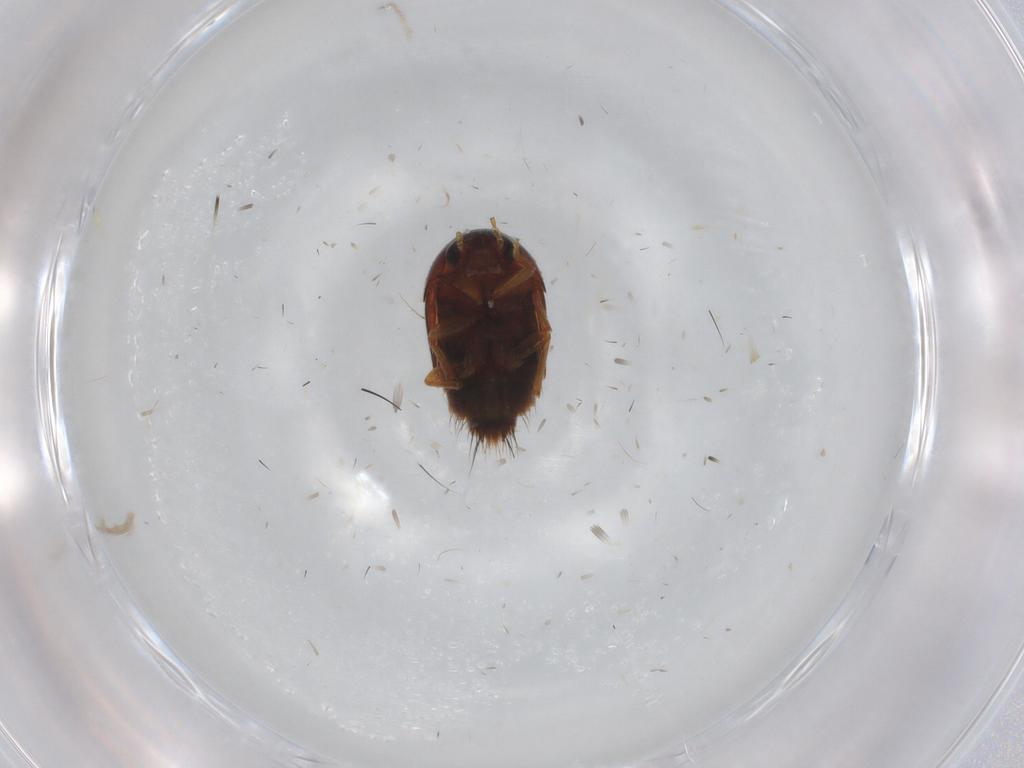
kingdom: Animalia
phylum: Arthropoda
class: Insecta
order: Coleoptera
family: Staphylinidae
